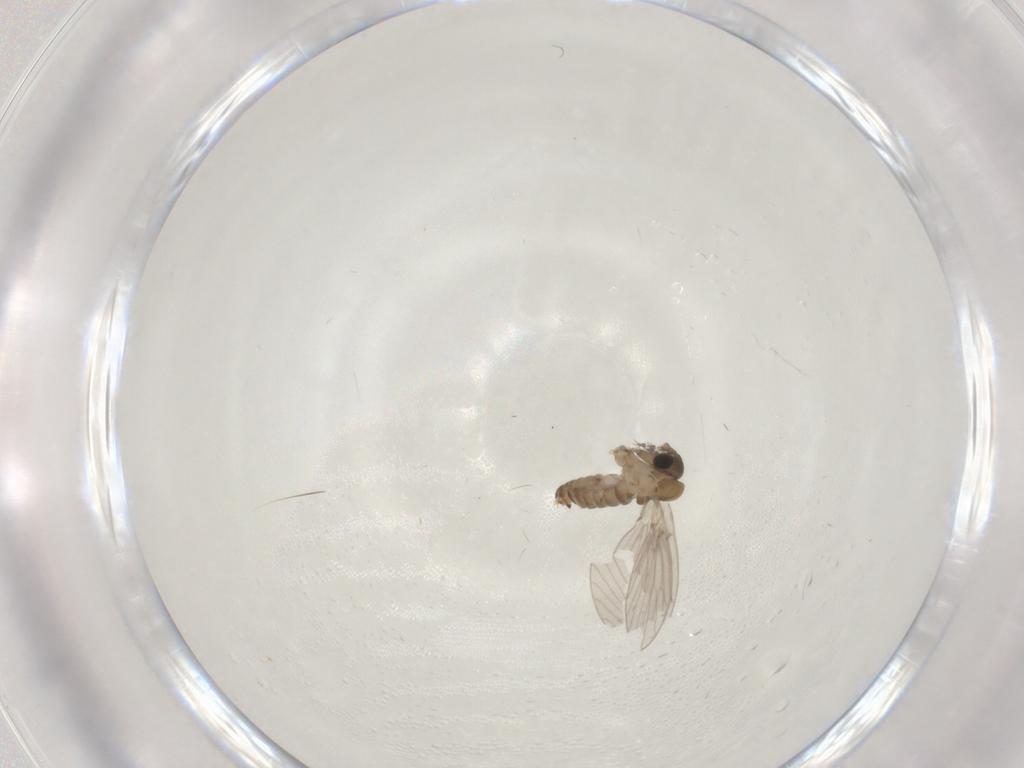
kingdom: Animalia
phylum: Arthropoda
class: Insecta
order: Diptera
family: Psychodidae
